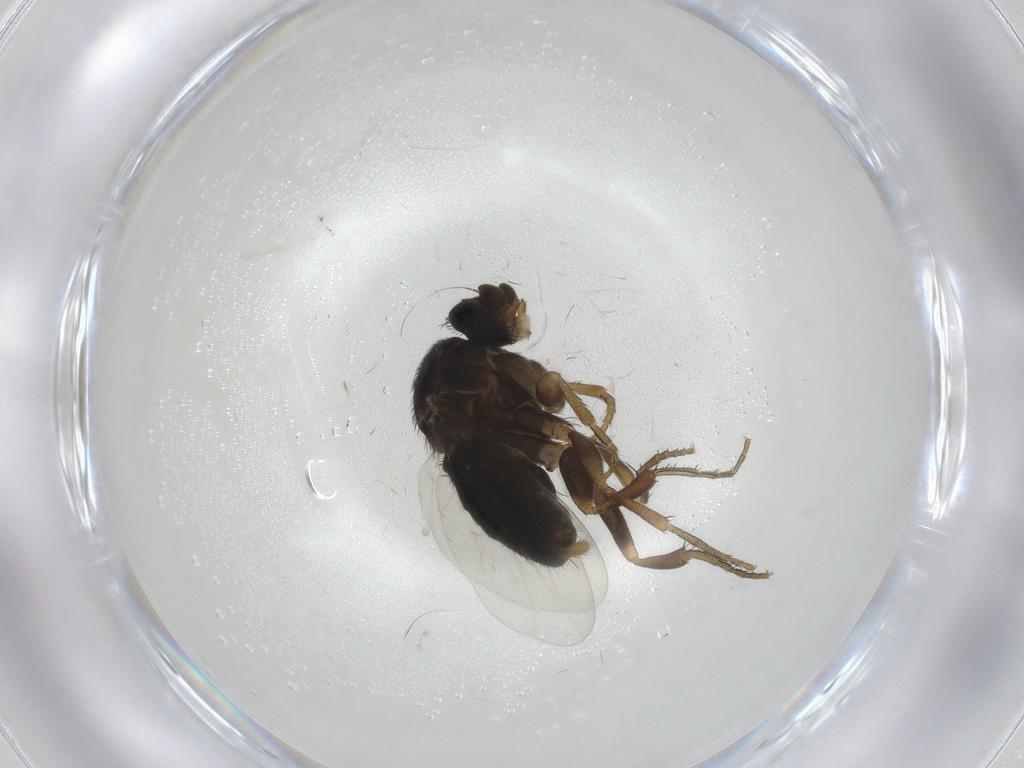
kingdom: Animalia
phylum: Arthropoda
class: Insecta
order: Diptera
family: Phoridae
